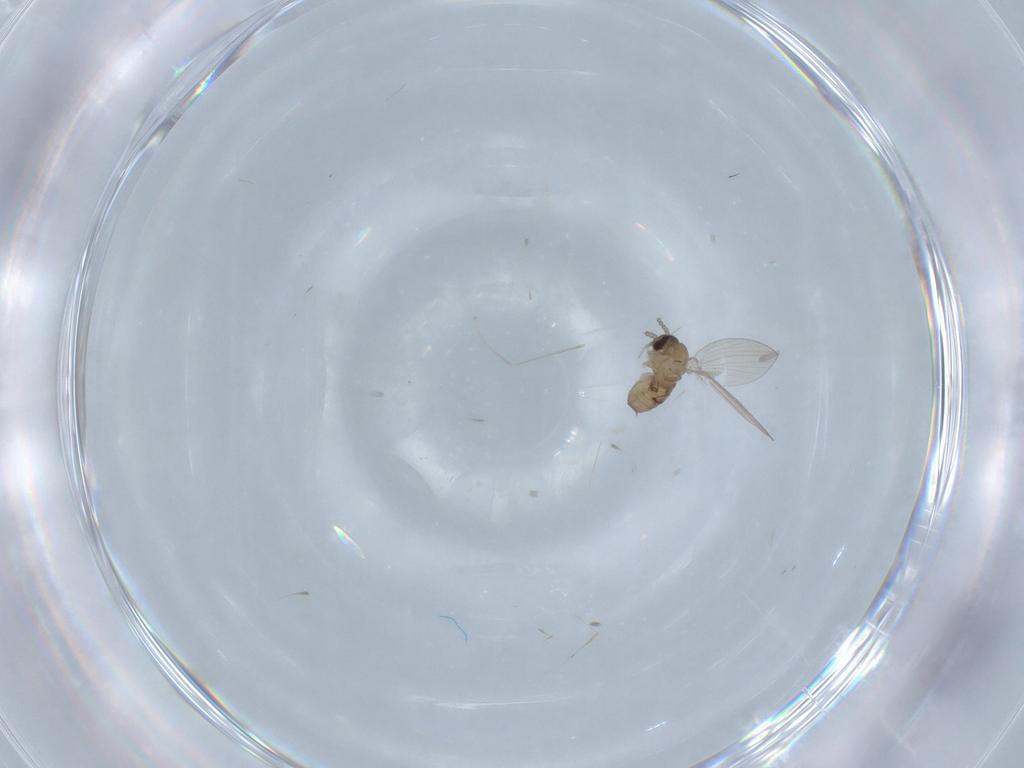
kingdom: Animalia
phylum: Arthropoda
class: Insecta
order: Diptera
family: Psychodidae
